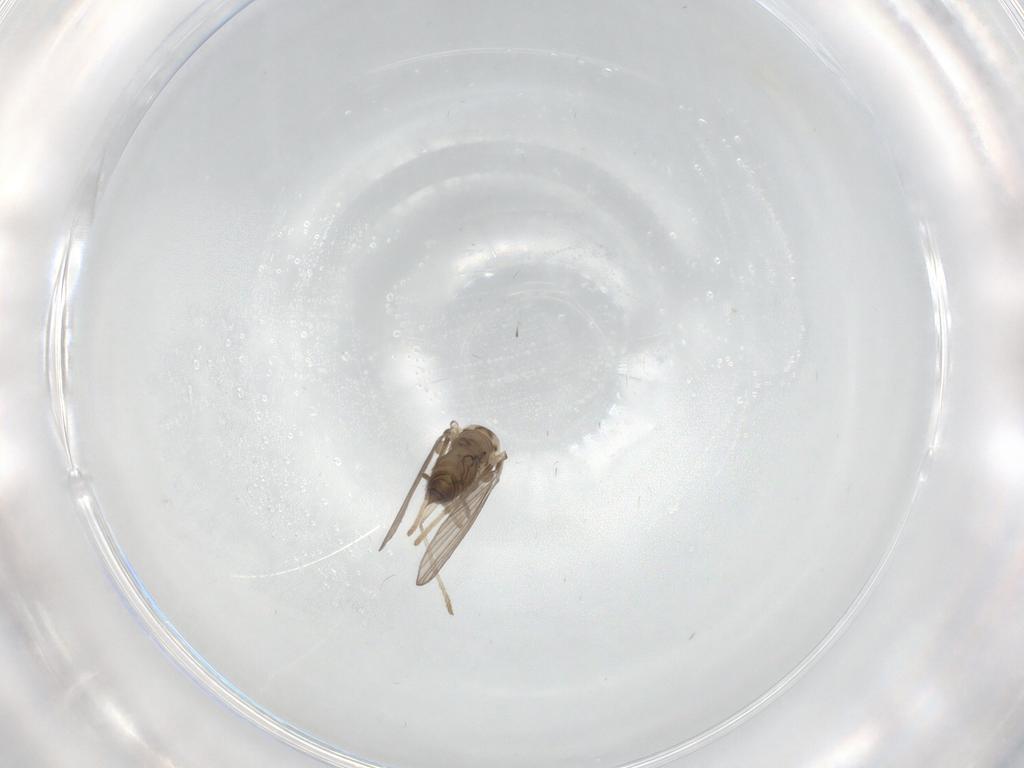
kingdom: Animalia
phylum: Arthropoda
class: Insecta
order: Diptera
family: Psychodidae
